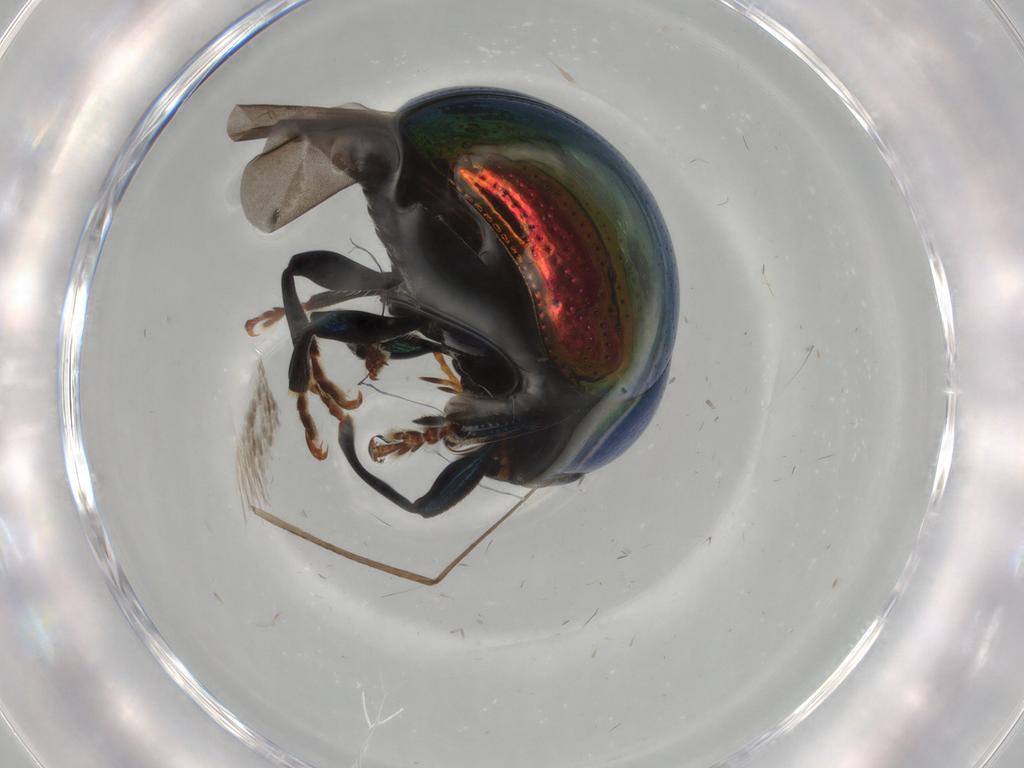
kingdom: Animalia
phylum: Arthropoda
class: Insecta
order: Coleoptera
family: Chrysomelidae
